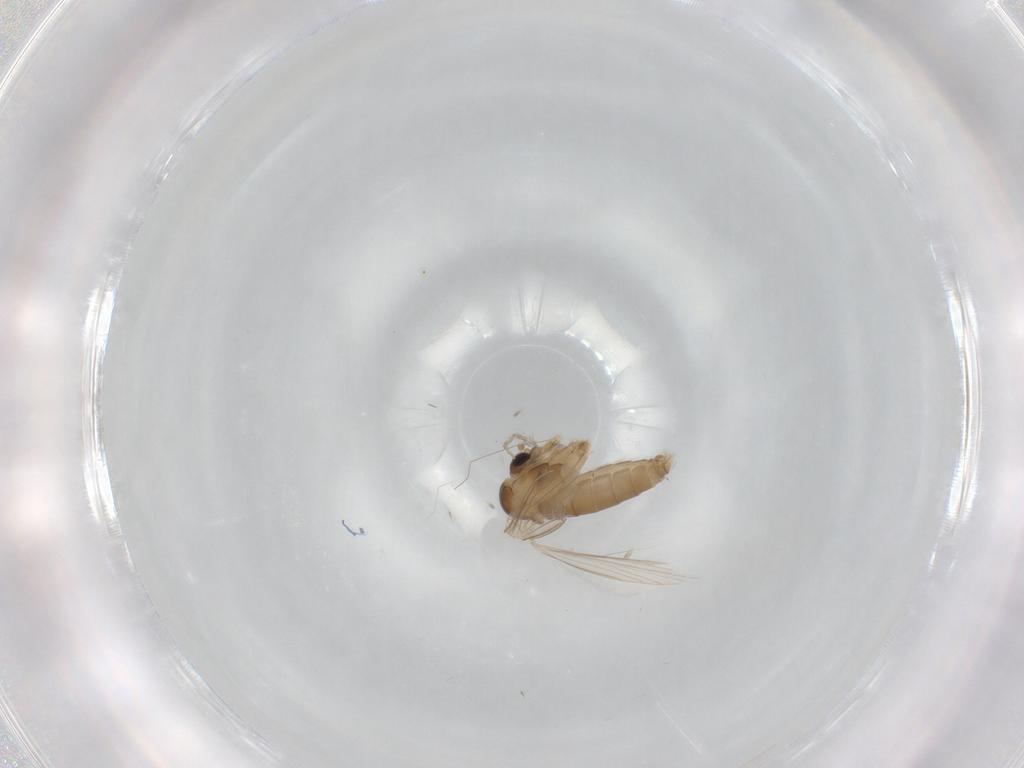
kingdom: Animalia
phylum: Arthropoda
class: Insecta
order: Diptera
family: Psychodidae
